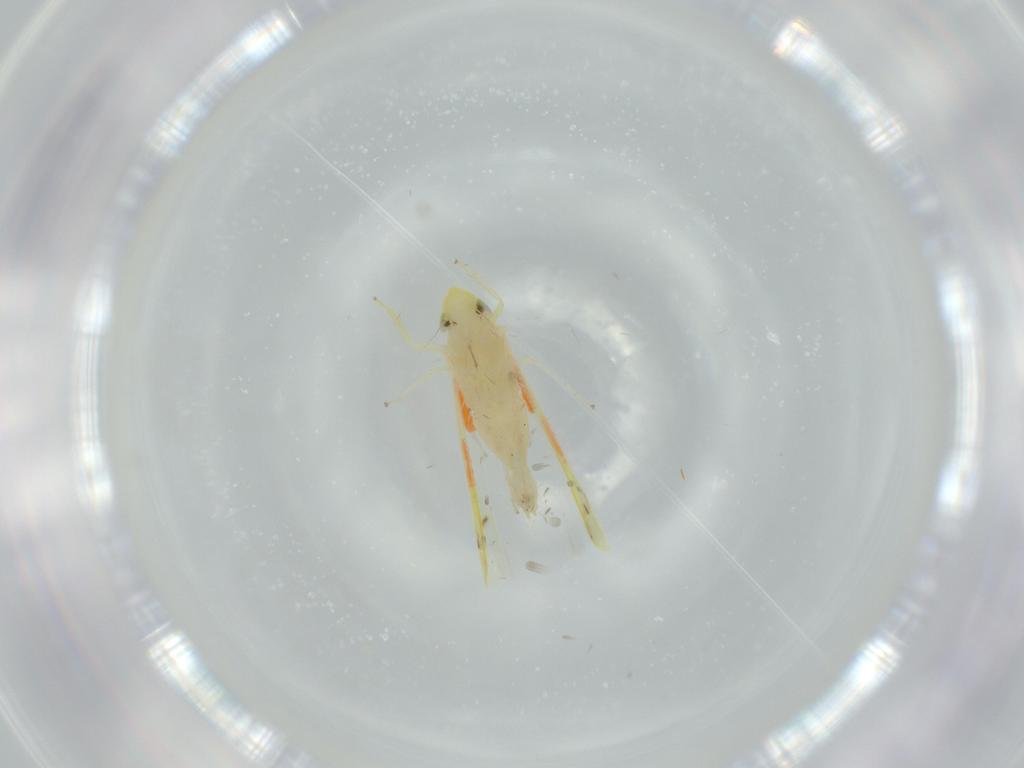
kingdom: Animalia
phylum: Arthropoda
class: Insecta
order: Hemiptera
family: Cicadellidae
